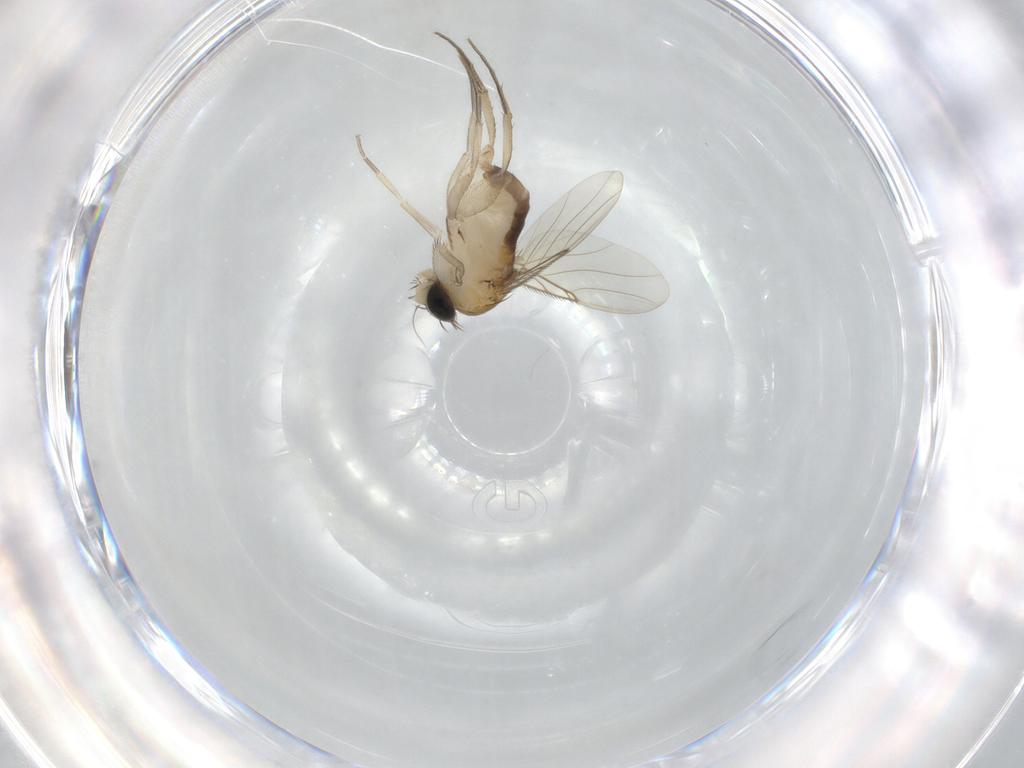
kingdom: Animalia
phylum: Arthropoda
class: Insecta
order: Diptera
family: Phoridae
